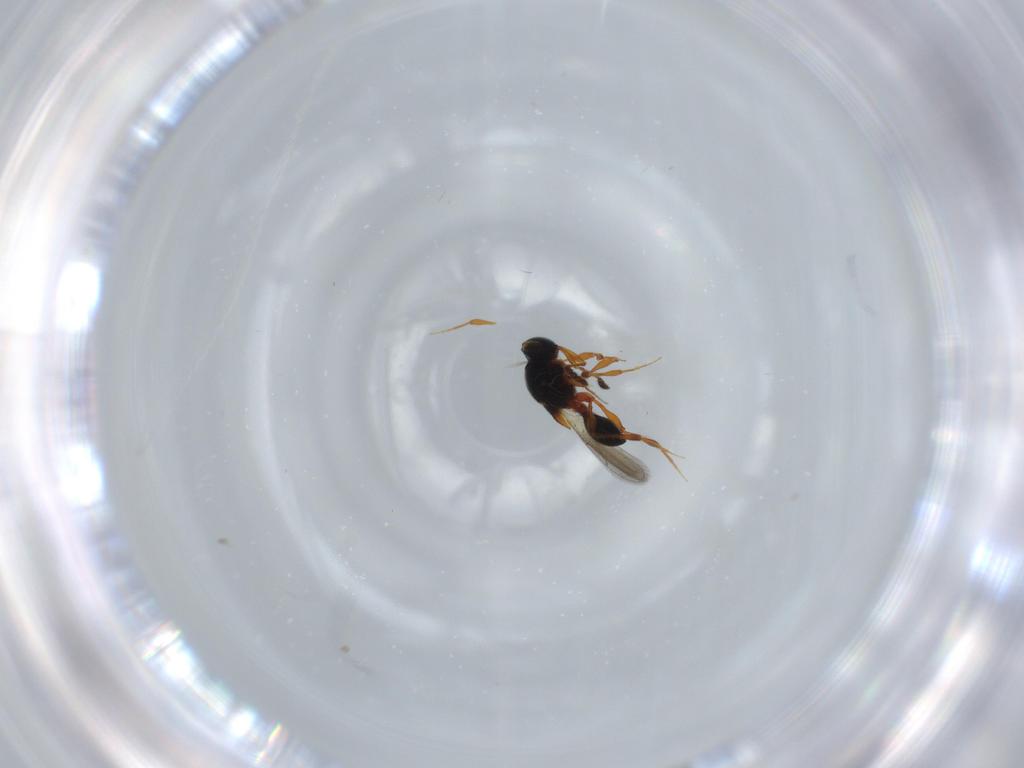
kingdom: Animalia
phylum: Arthropoda
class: Insecta
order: Hymenoptera
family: Platygastridae
